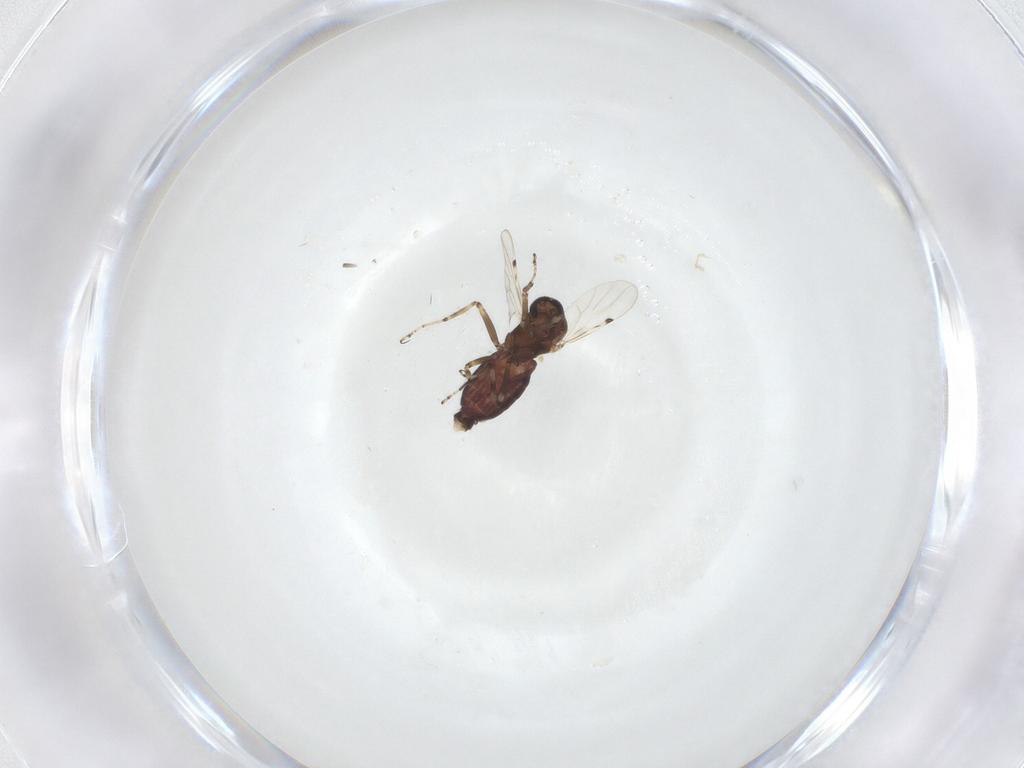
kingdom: Animalia
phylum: Arthropoda
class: Insecta
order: Diptera
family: Ceratopogonidae
